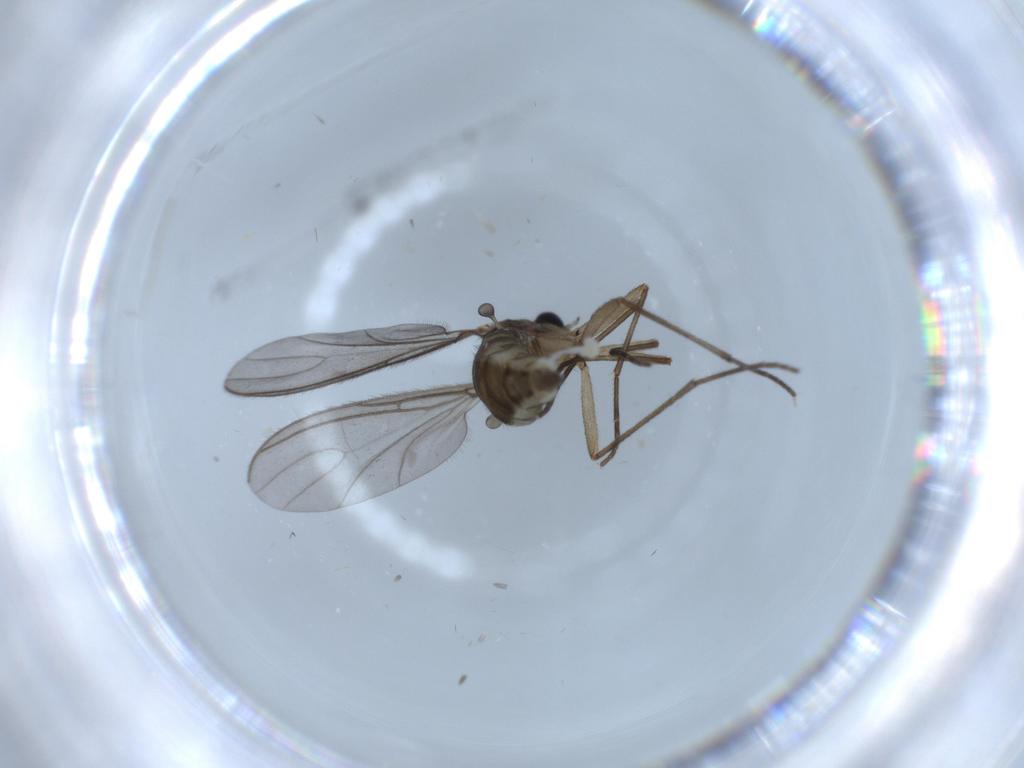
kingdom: Animalia
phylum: Arthropoda
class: Insecta
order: Diptera
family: Sciaridae
